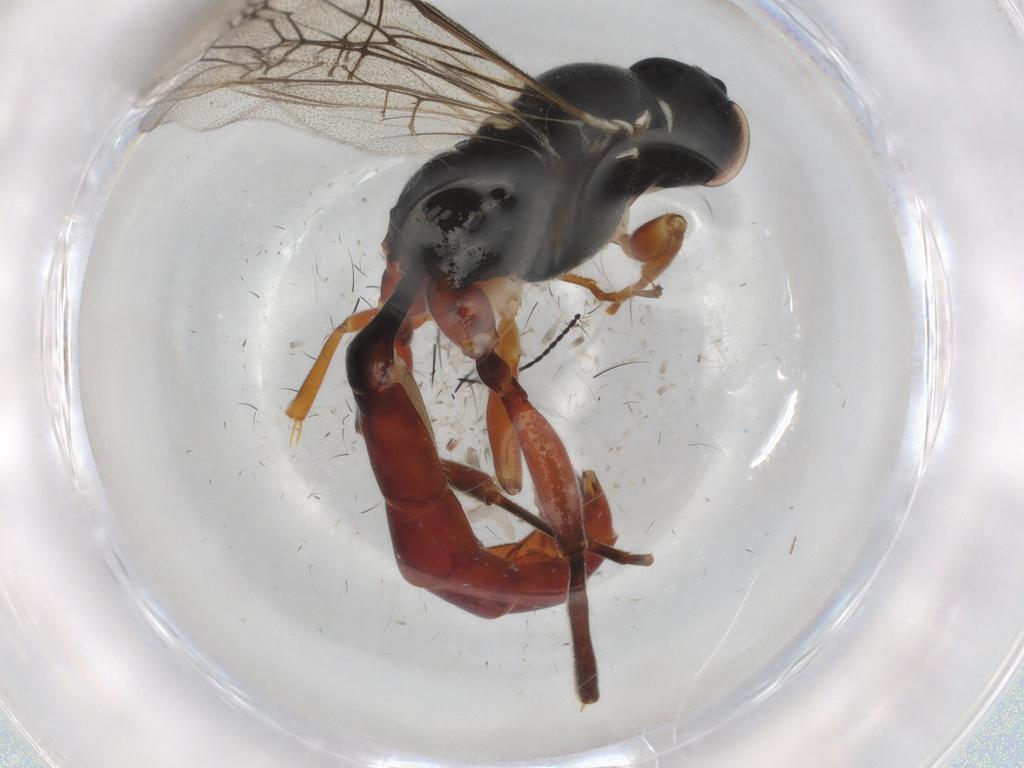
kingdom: Animalia
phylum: Arthropoda
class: Insecta
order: Hymenoptera
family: Ichneumonidae
